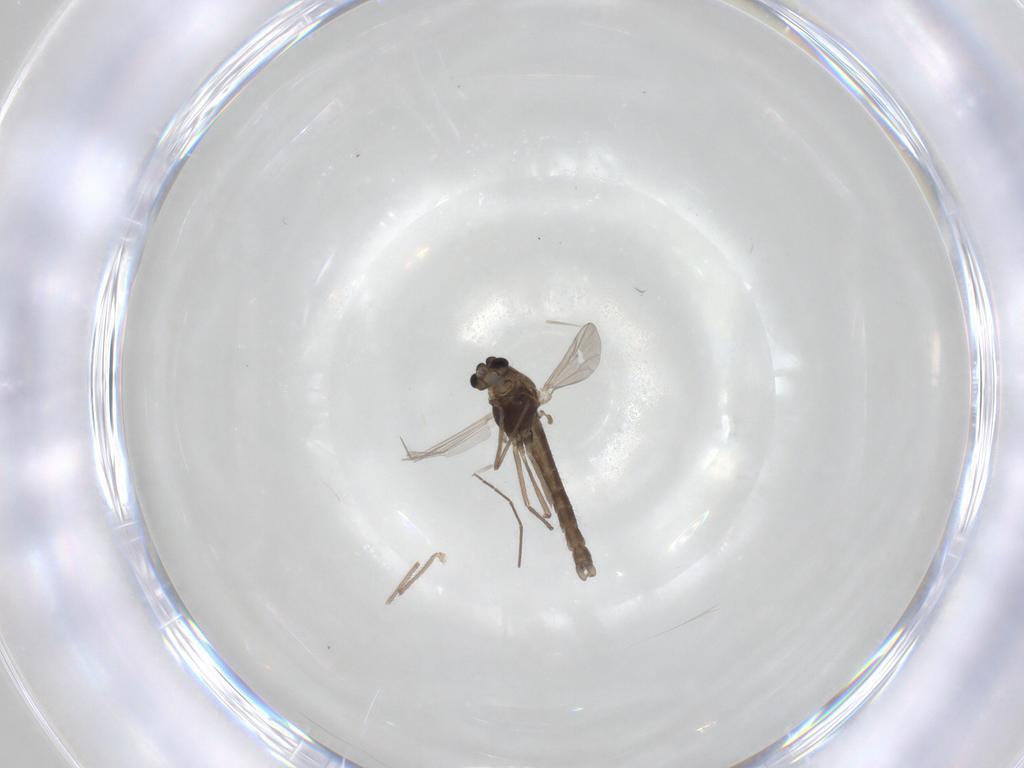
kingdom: Animalia
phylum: Arthropoda
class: Insecta
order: Diptera
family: Chironomidae
